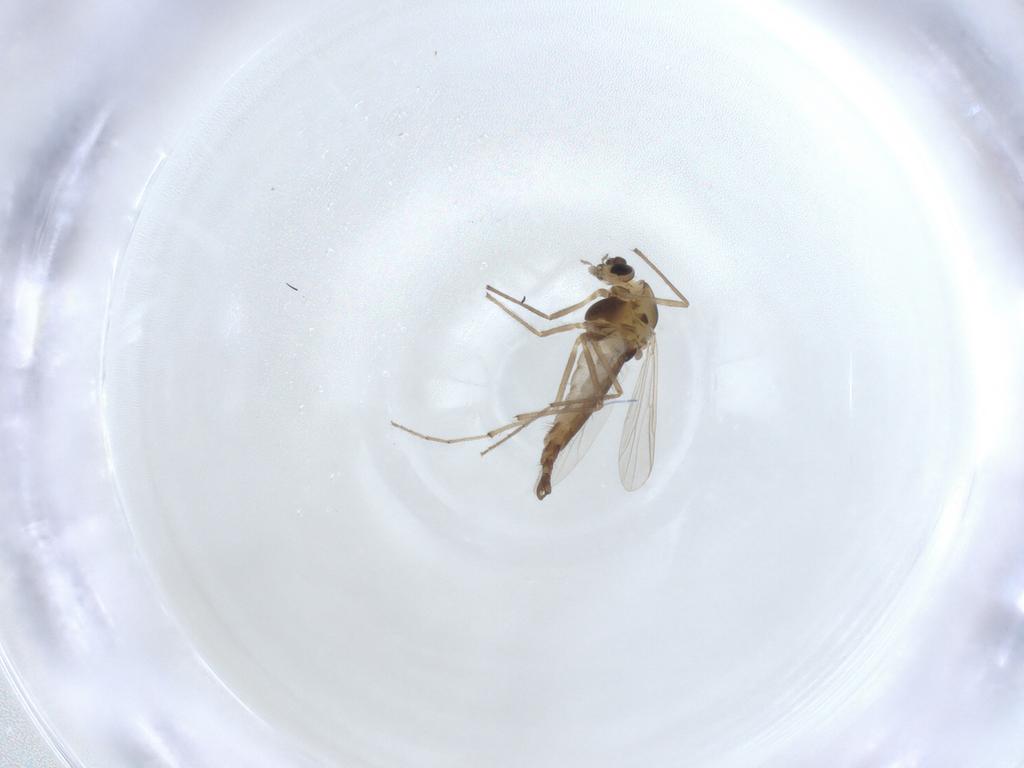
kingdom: Animalia
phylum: Arthropoda
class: Insecta
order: Diptera
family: Chironomidae
